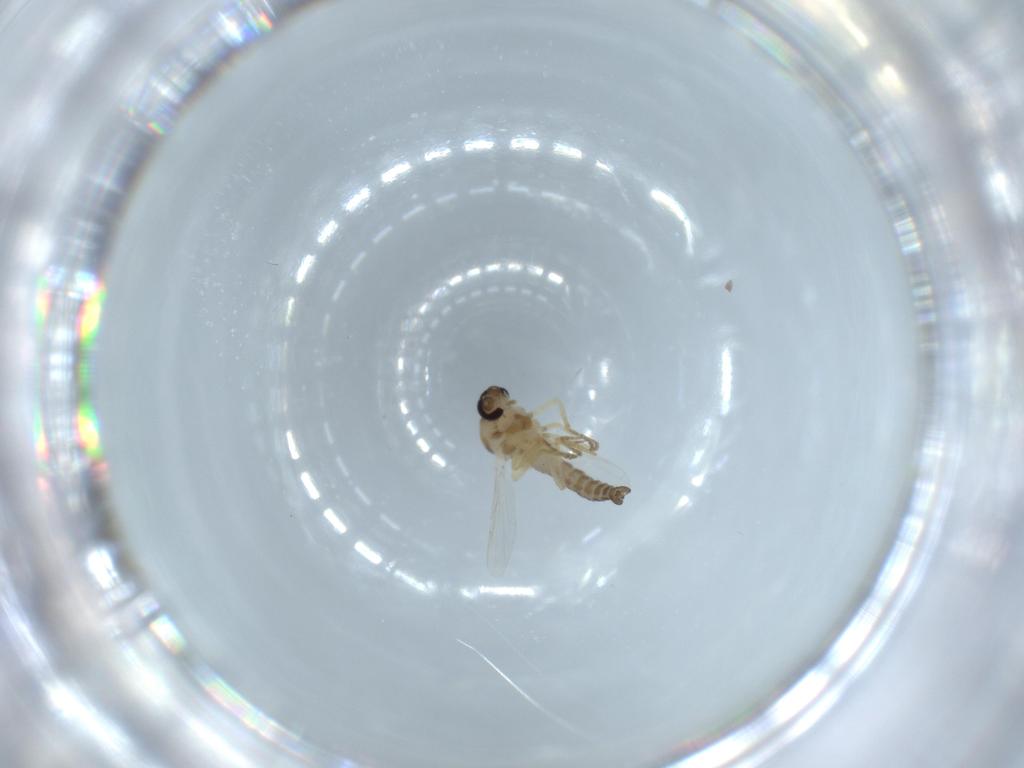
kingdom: Animalia
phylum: Arthropoda
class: Insecta
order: Diptera
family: Ceratopogonidae
